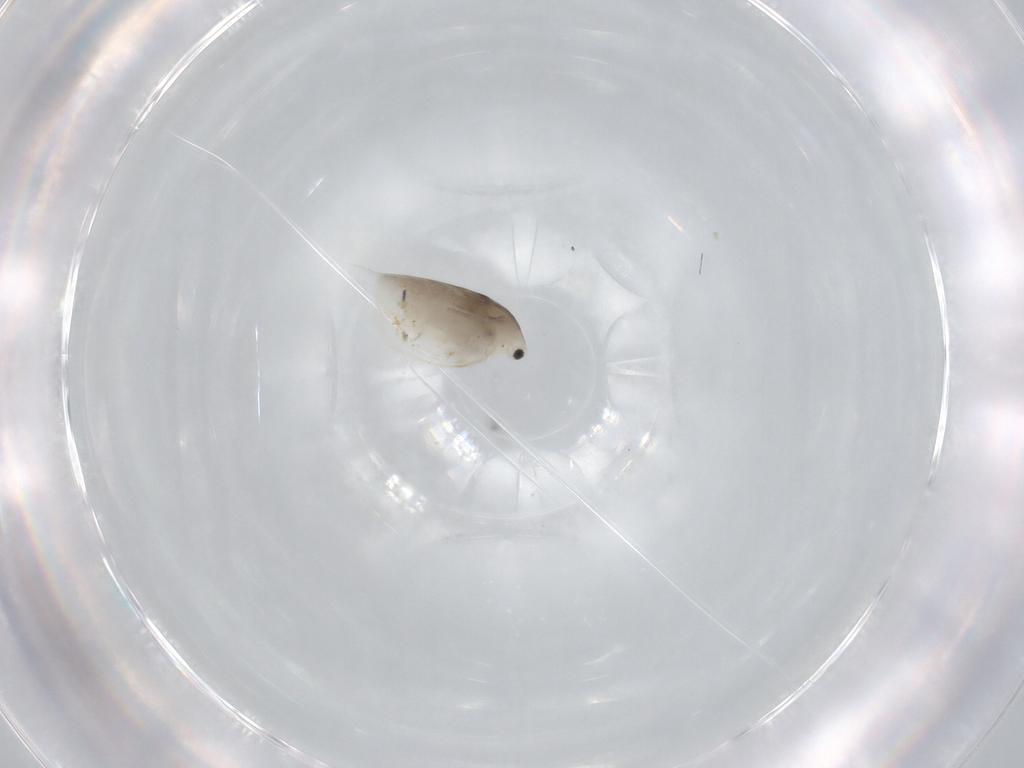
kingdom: Animalia
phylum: Arthropoda
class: Branchiopoda
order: Diplostraca
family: Daphniidae
